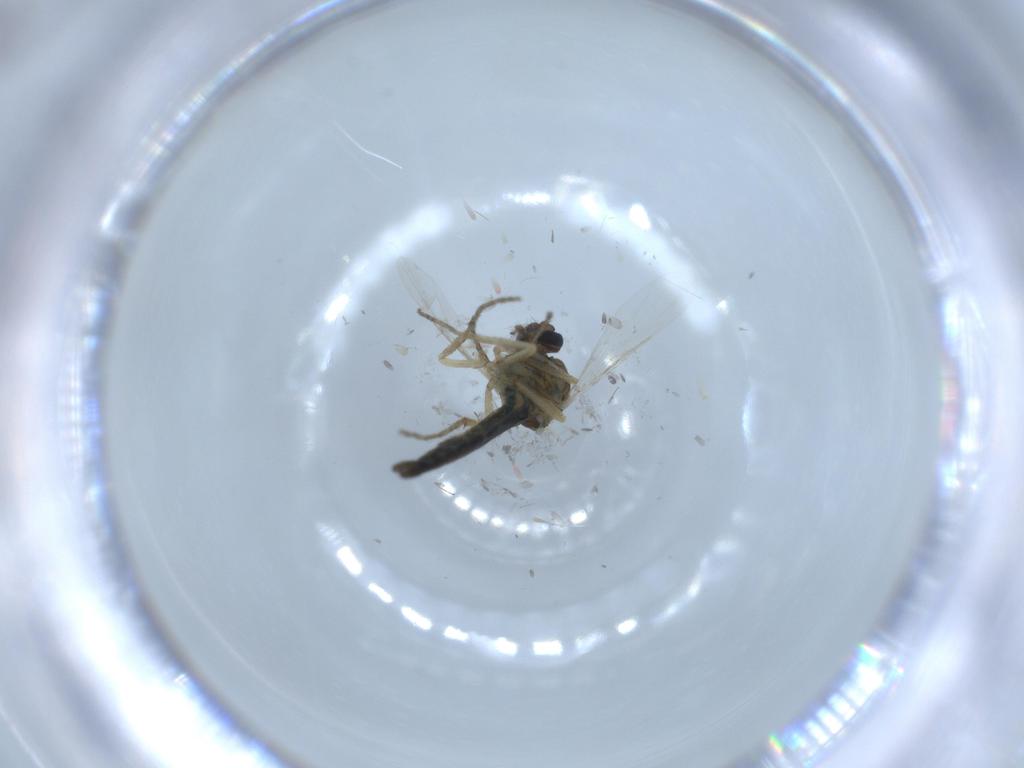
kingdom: Animalia
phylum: Arthropoda
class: Insecta
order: Diptera
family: Ceratopogonidae
